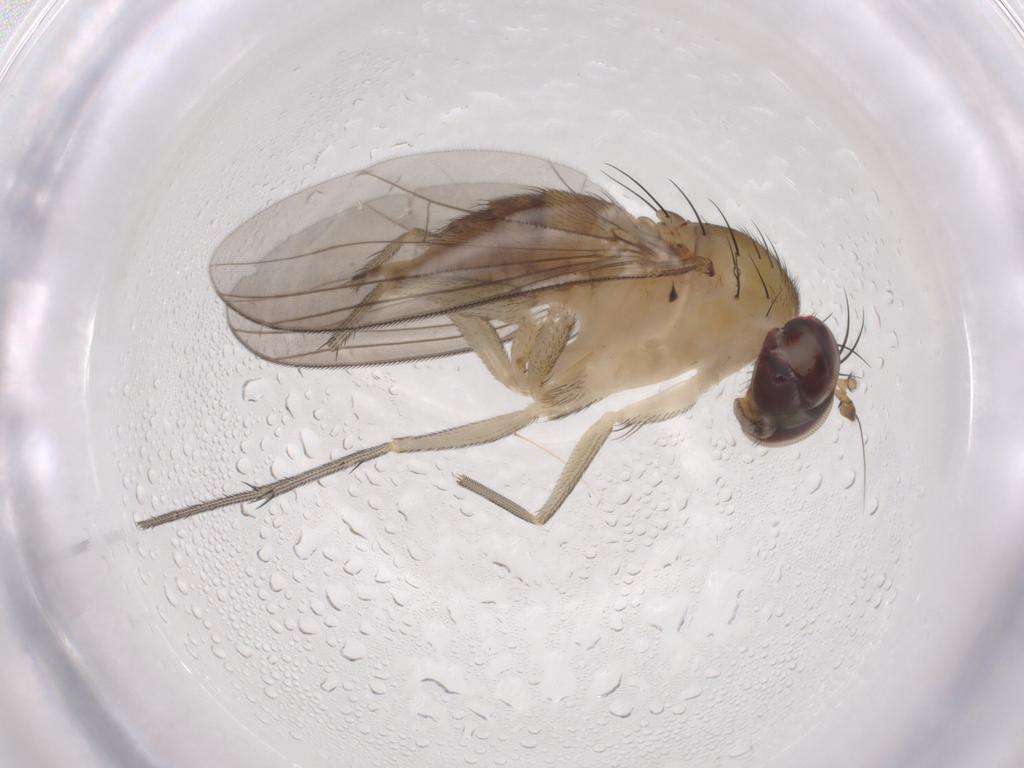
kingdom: Animalia
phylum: Arthropoda
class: Insecta
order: Diptera
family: Dolichopodidae
